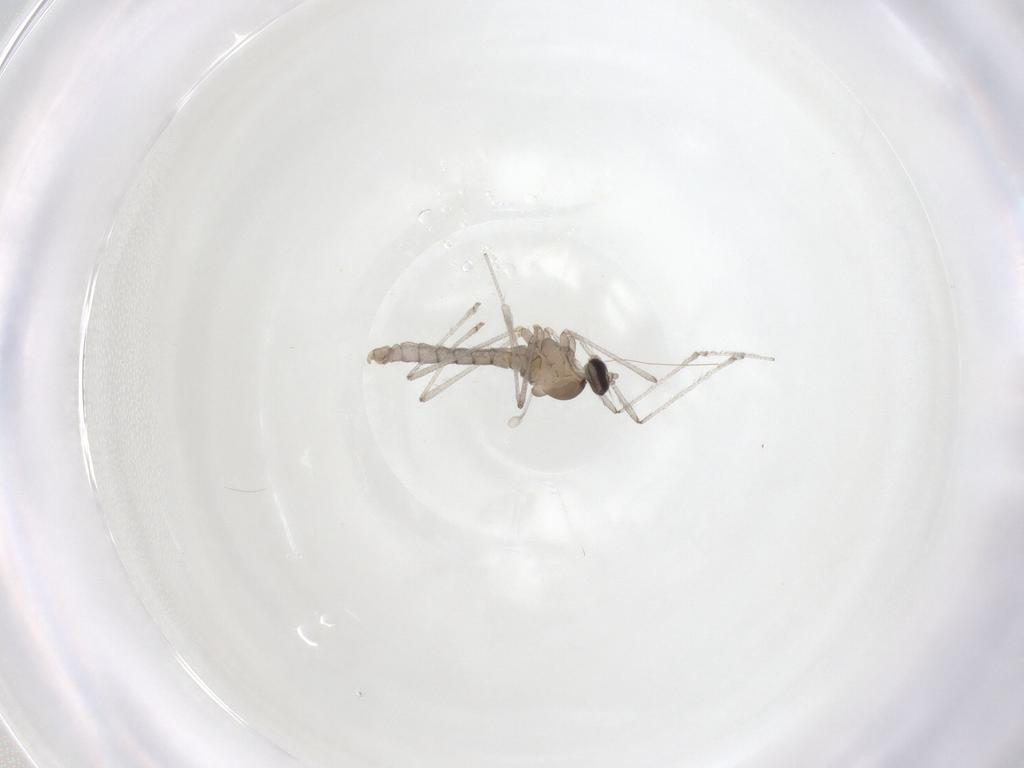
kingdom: Animalia
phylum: Arthropoda
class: Insecta
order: Diptera
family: Cecidomyiidae
